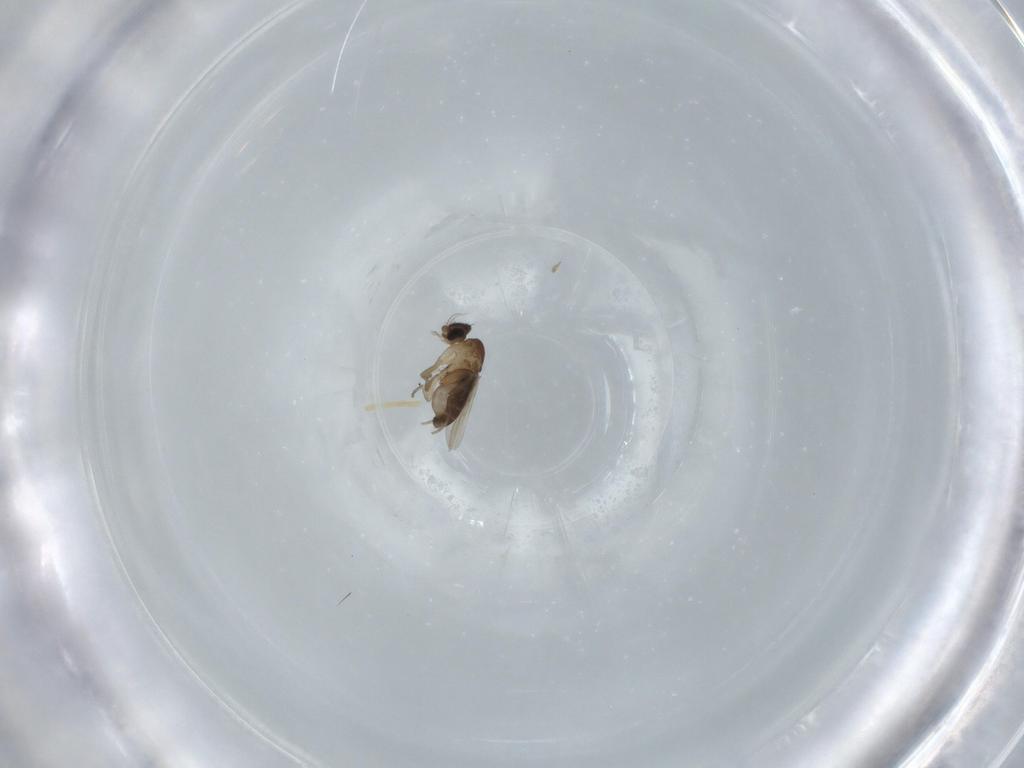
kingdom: Animalia
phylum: Arthropoda
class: Insecta
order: Diptera
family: Phoridae
